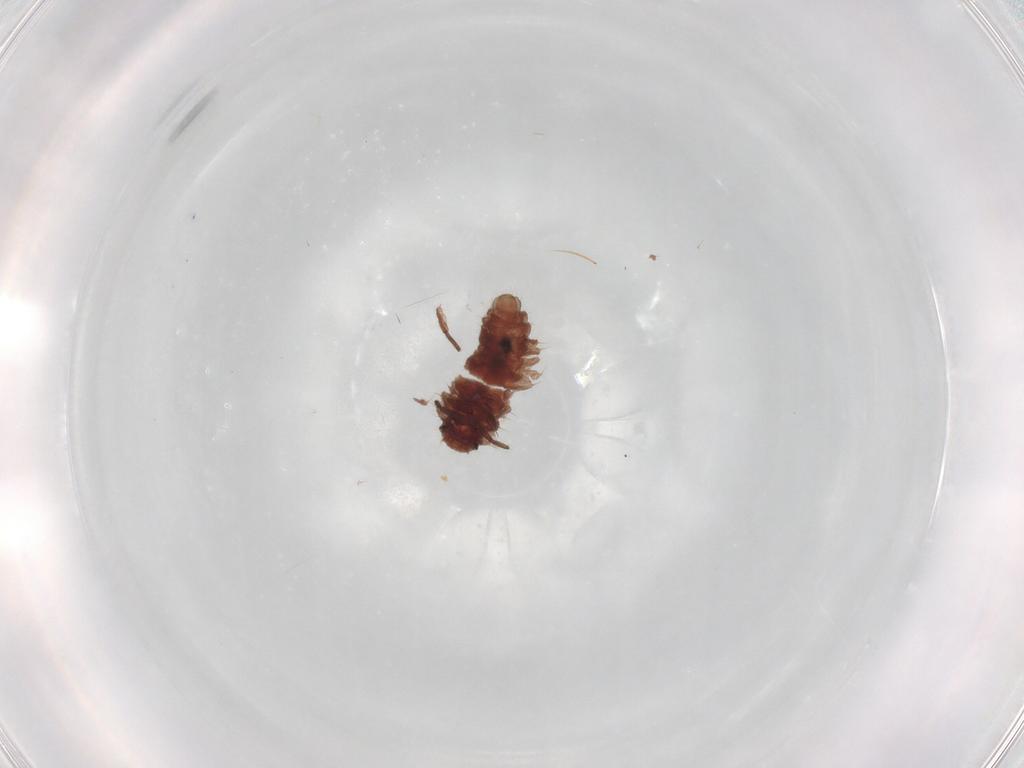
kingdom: Animalia
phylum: Arthropoda
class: Insecta
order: Coleoptera
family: Coccinellidae
